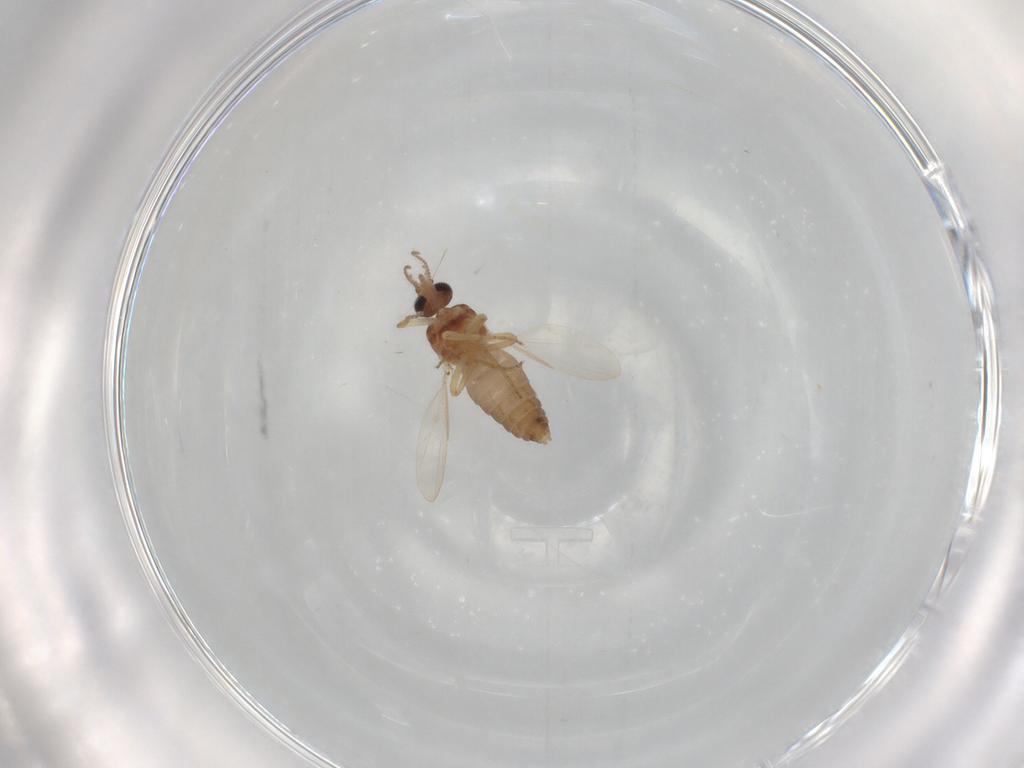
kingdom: Animalia
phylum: Arthropoda
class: Insecta
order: Diptera
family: Ceratopogonidae
